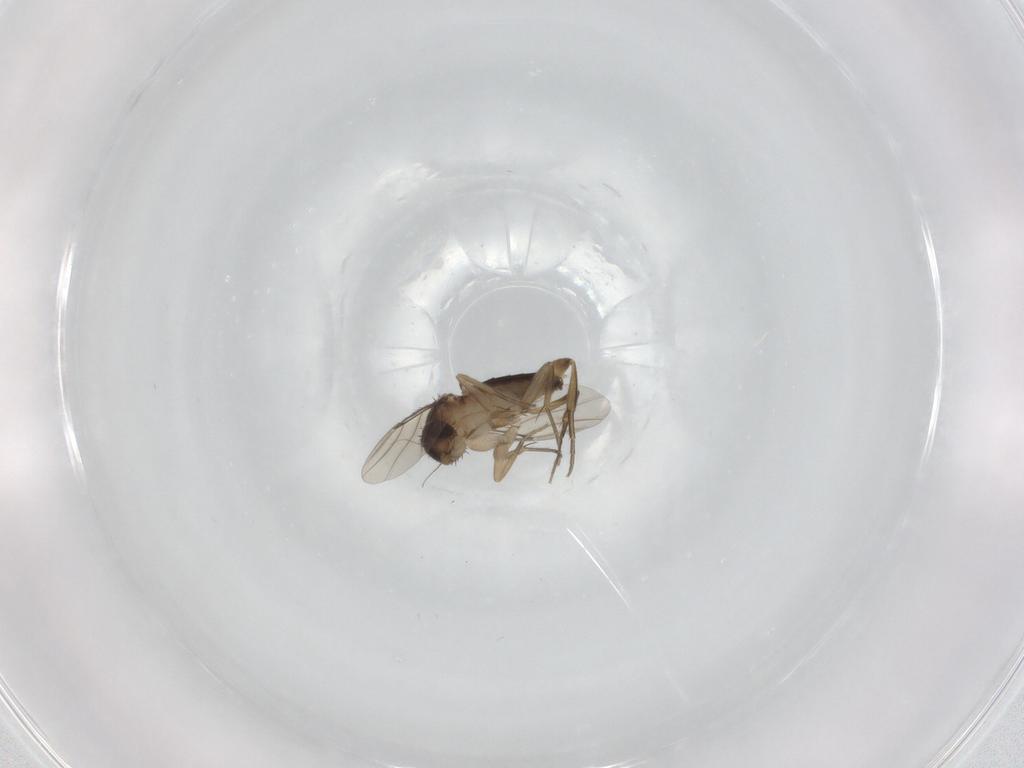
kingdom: Animalia
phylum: Arthropoda
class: Insecta
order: Diptera
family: Phoridae
